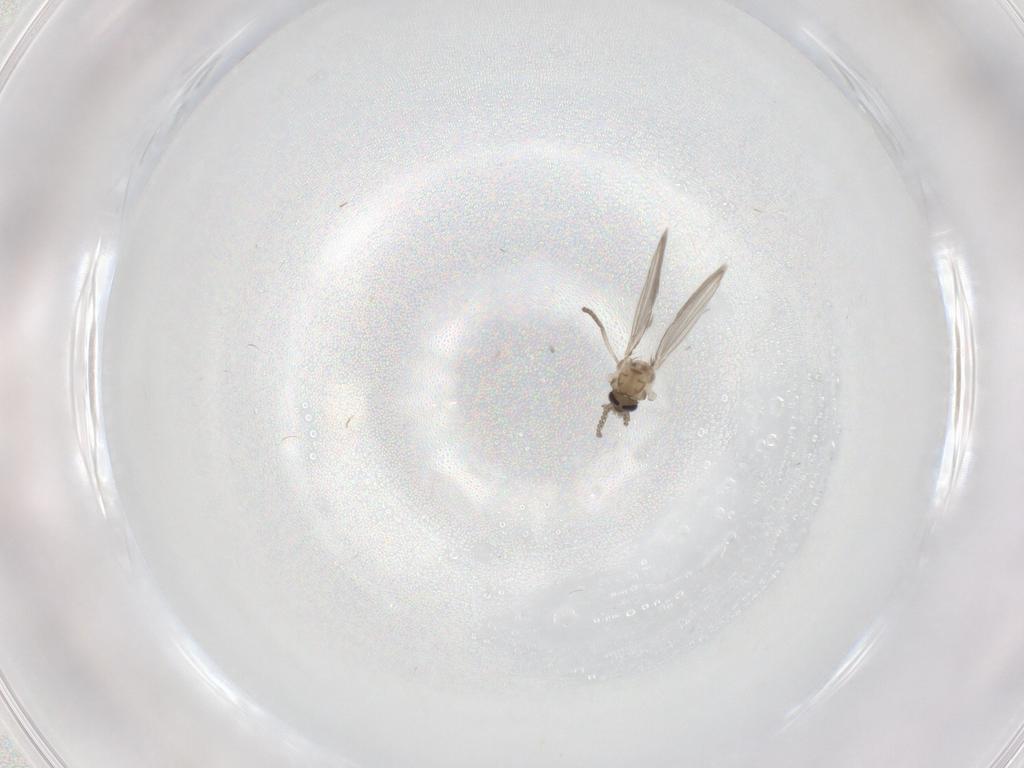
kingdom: Animalia
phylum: Arthropoda
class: Insecta
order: Diptera
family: Psychodidae
